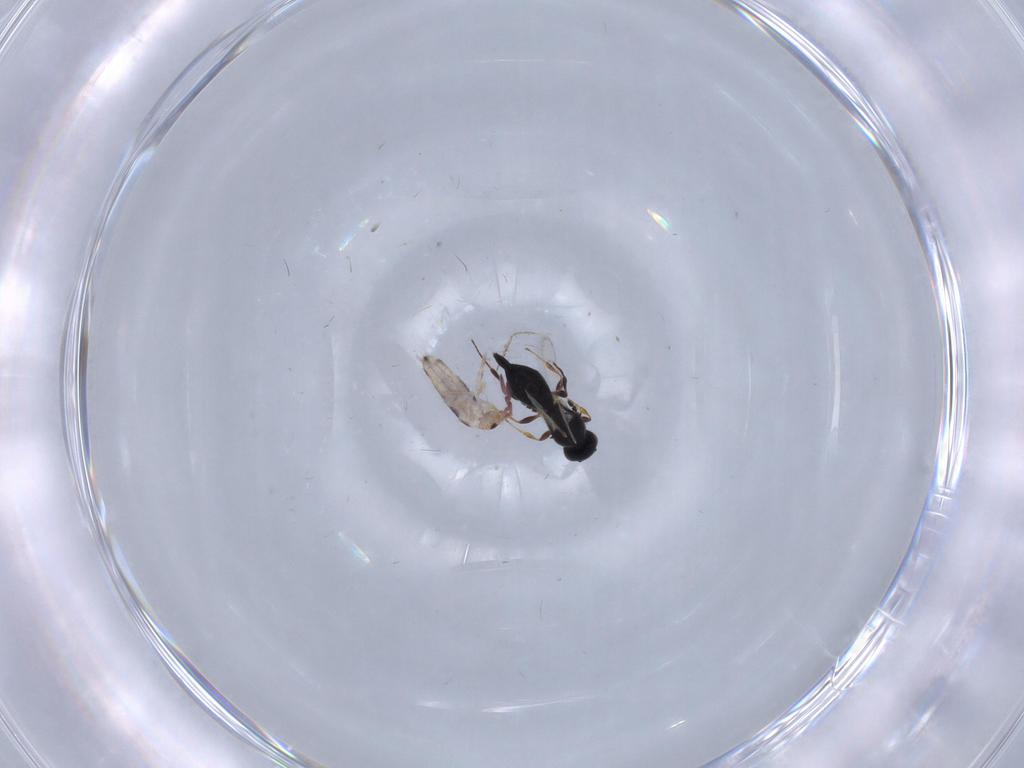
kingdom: Animalia
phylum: Arthropoda
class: Collembola
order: Entomobryomorpha
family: Entomobryidae
